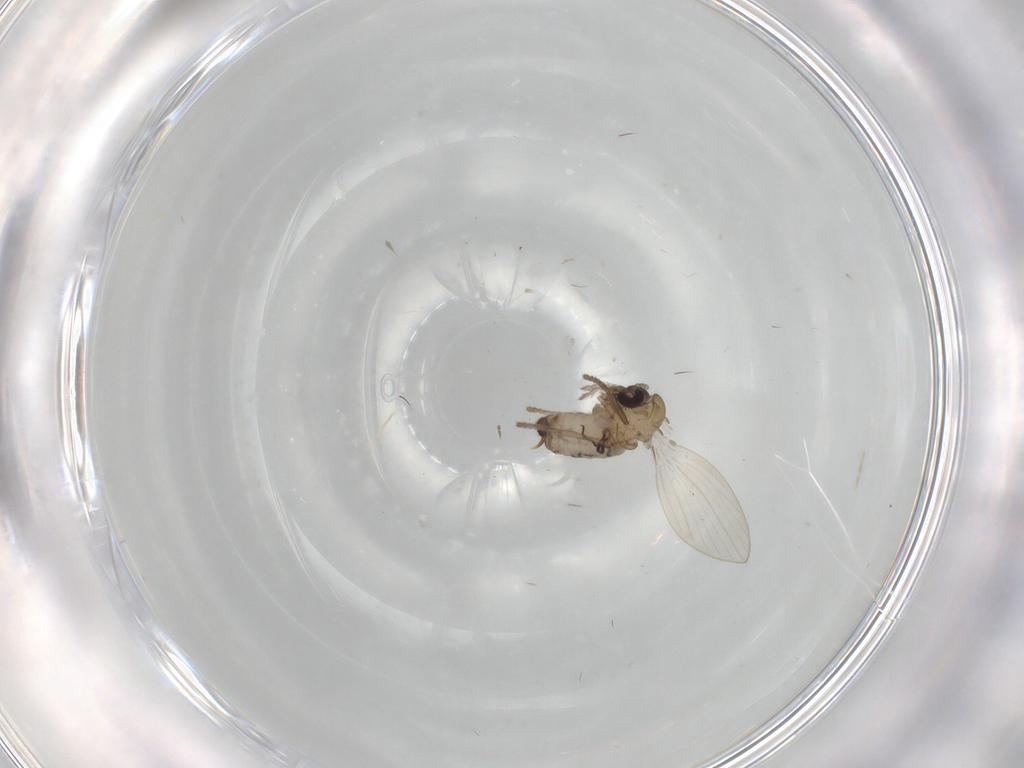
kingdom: Animalia
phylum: Arthropoda
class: Insecta
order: Diptera
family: Psychodidae
